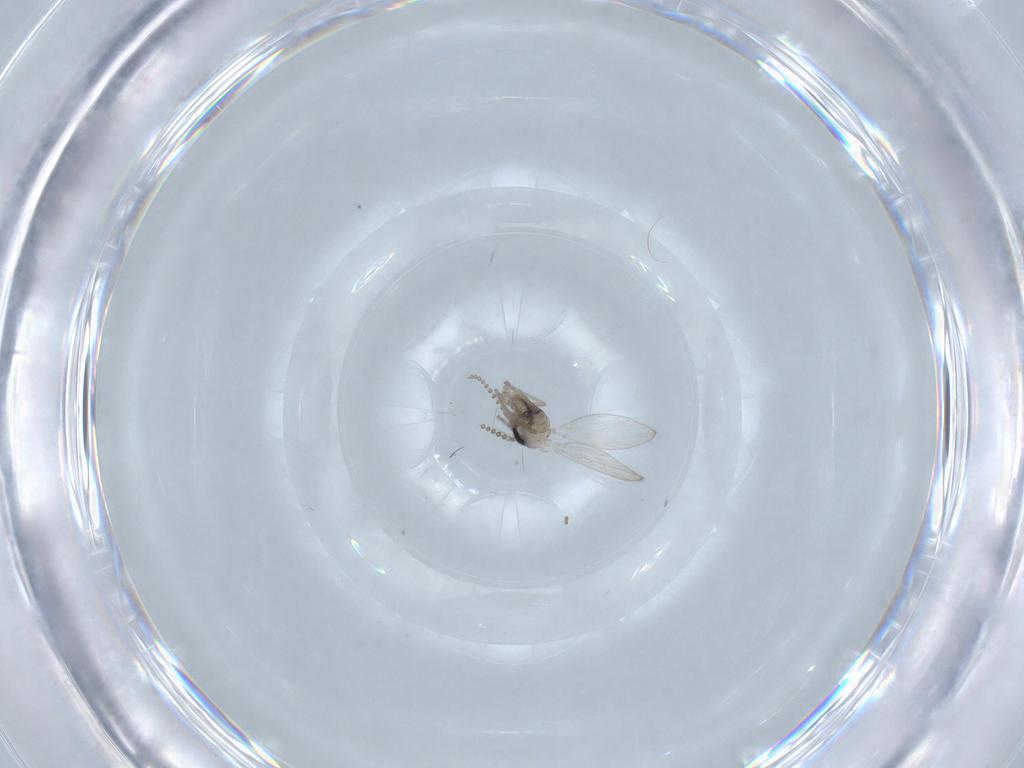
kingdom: Animalia
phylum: Arthropoda
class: Insecta
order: Diptera
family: Psychodidae
